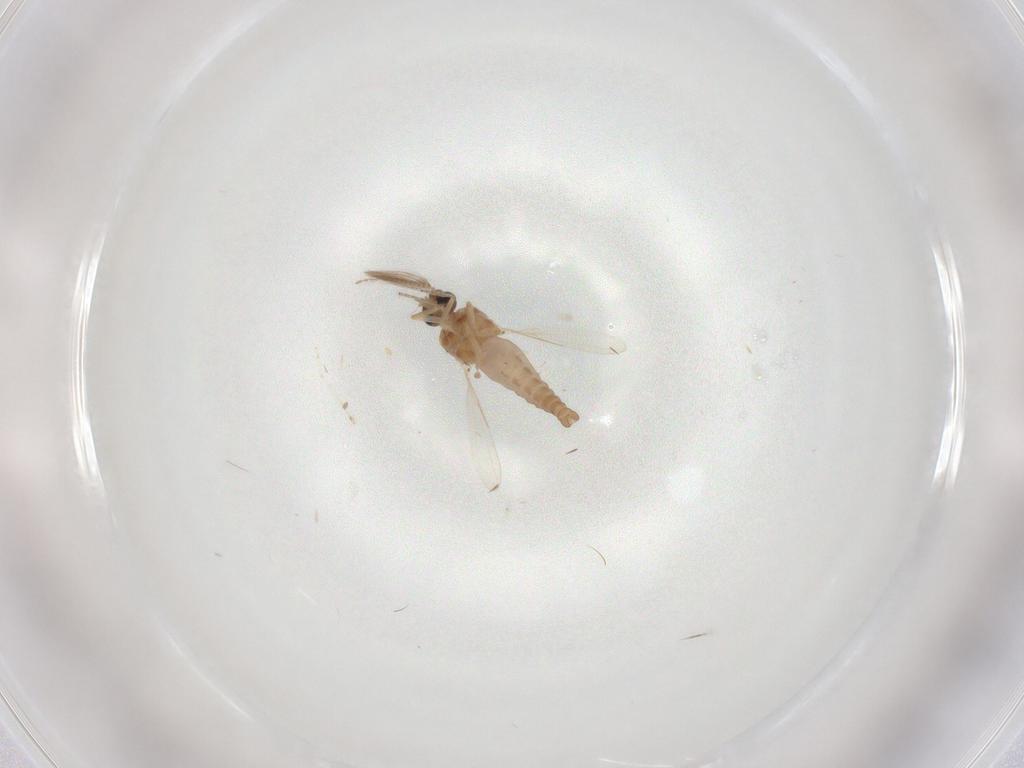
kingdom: Animalia
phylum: Arthropoda
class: Insecta
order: Diptera
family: Ceratopogonidae
